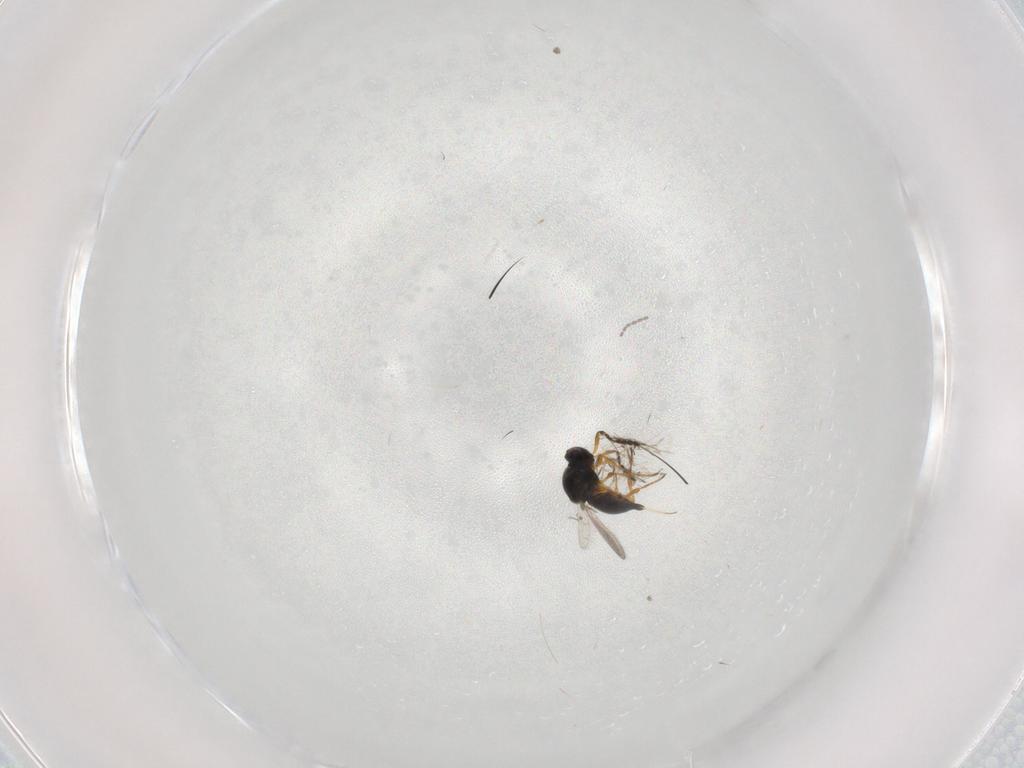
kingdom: Animalia
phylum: Arthropoda
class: Insecta
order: Hymenoptera
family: Platygastridae
